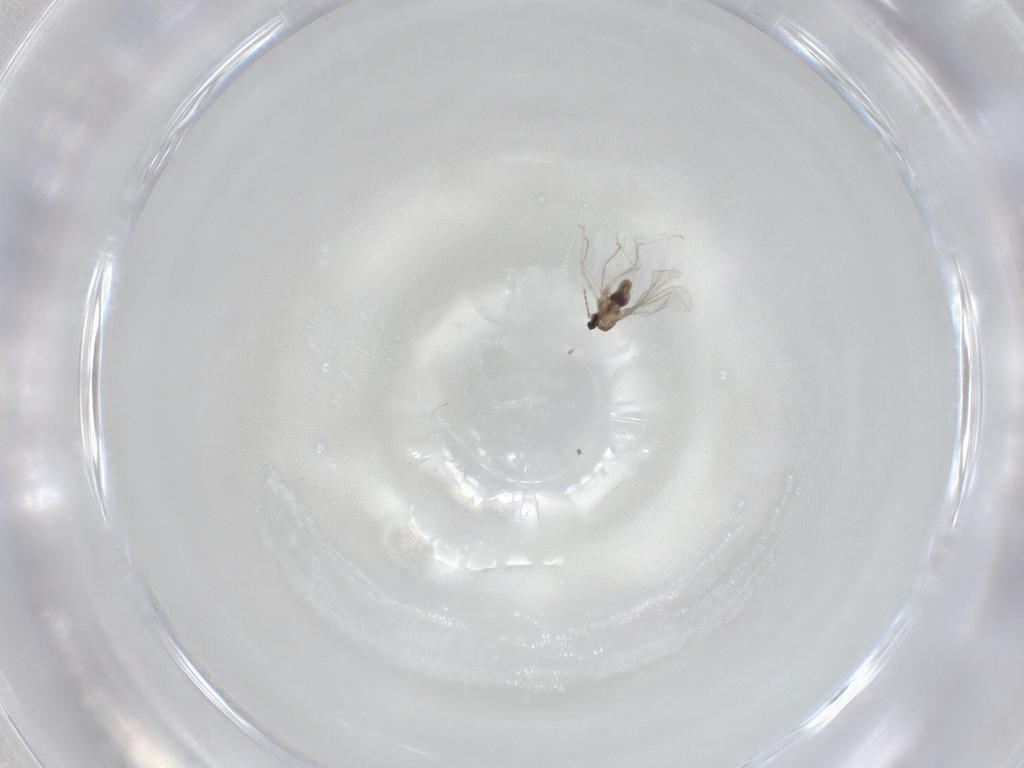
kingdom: Animalia
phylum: Arthropoda
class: Insecta
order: Diptera
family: Cecidomyiidae
